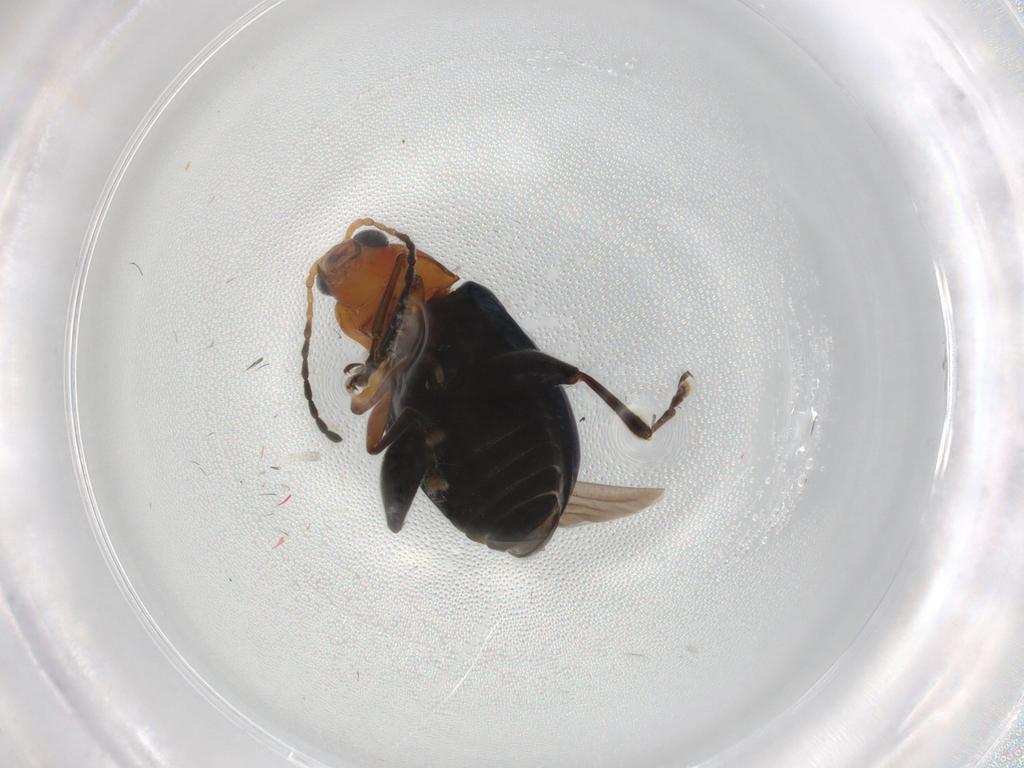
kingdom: Animalia
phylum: Arthropoda
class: Insecta
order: Coleoptera
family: Chrysomelidae
